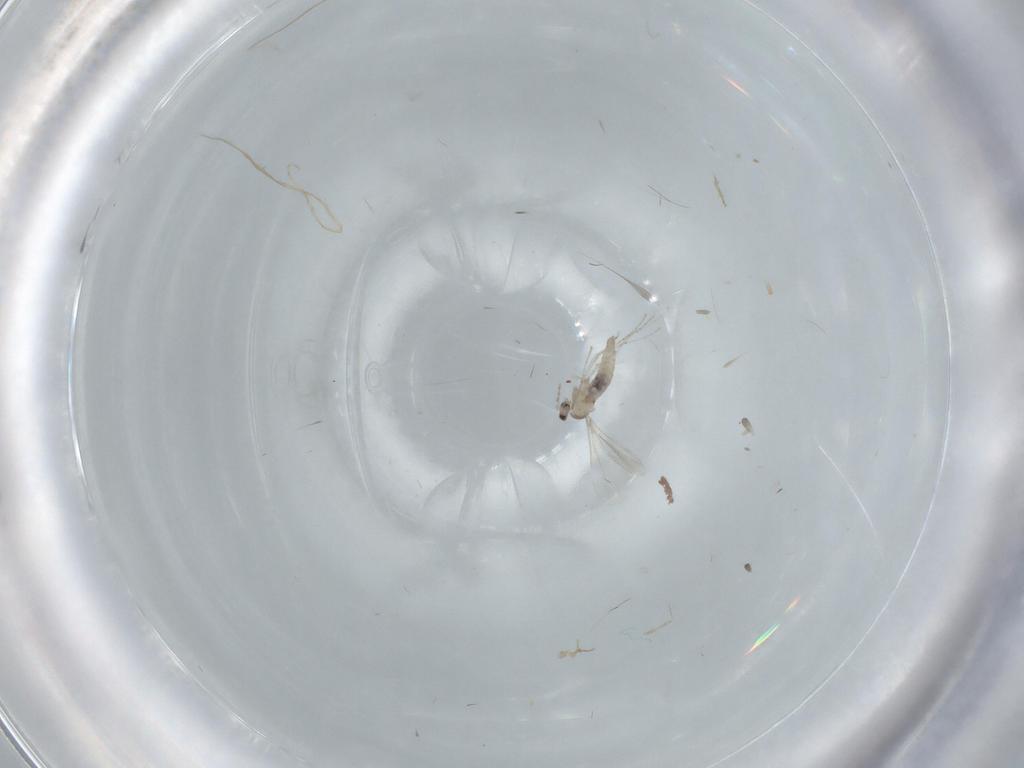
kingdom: Animalia
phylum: Arthropoda
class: Insecta
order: Diptera
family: Cecidomyiidae
